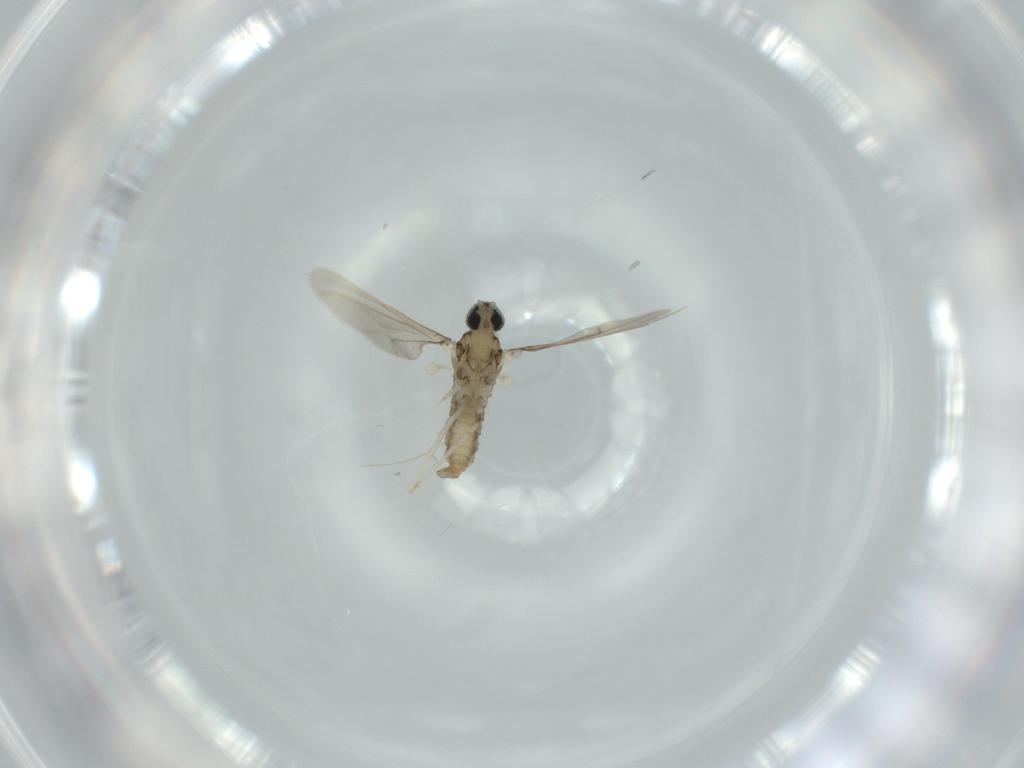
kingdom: Animalia
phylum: Arthropoda
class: Insecta
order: Diptera
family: Cecidomyiidae
